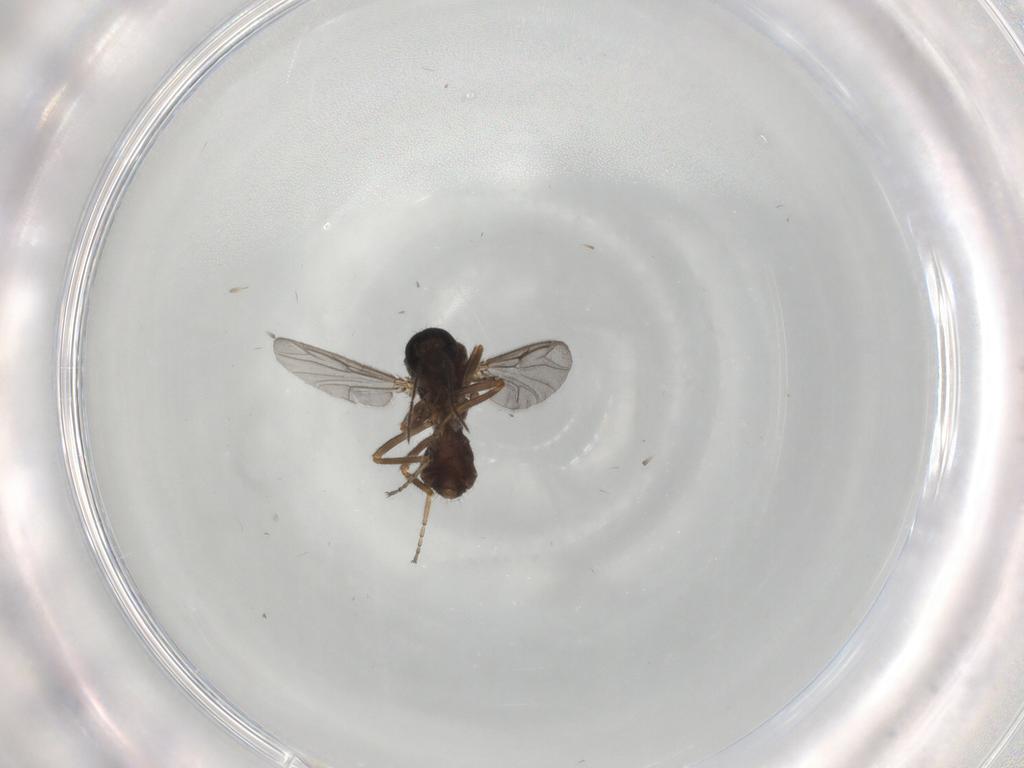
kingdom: Animalia
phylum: Arthropoda
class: Insecta
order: Diptera
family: Ceratopogonidae
